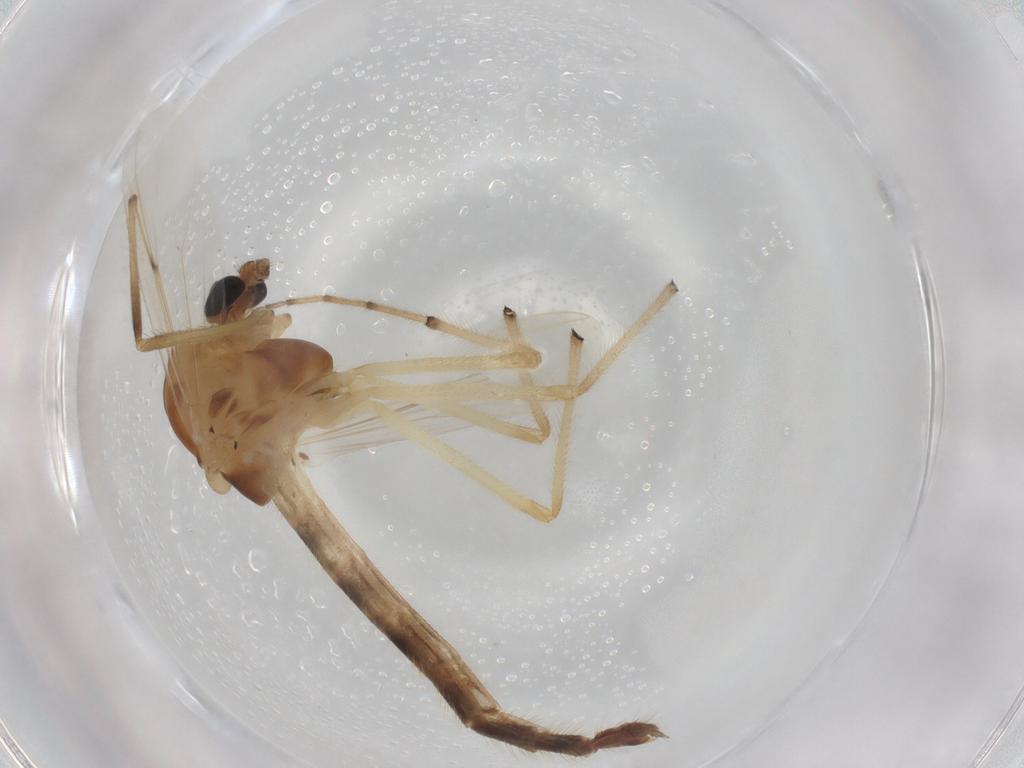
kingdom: Animalia
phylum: Arthropoda
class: Insecta
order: Diptera
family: Chironomidae
